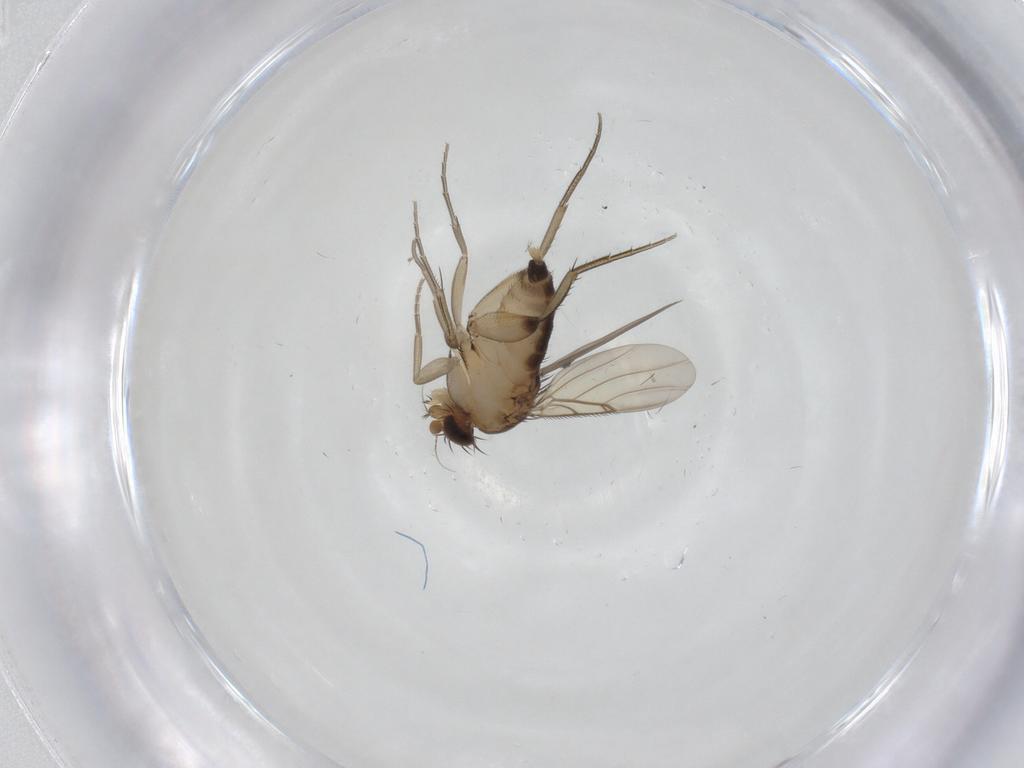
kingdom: Animalia
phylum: Arthropoda
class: Insecta
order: Diptera
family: Phoridae
